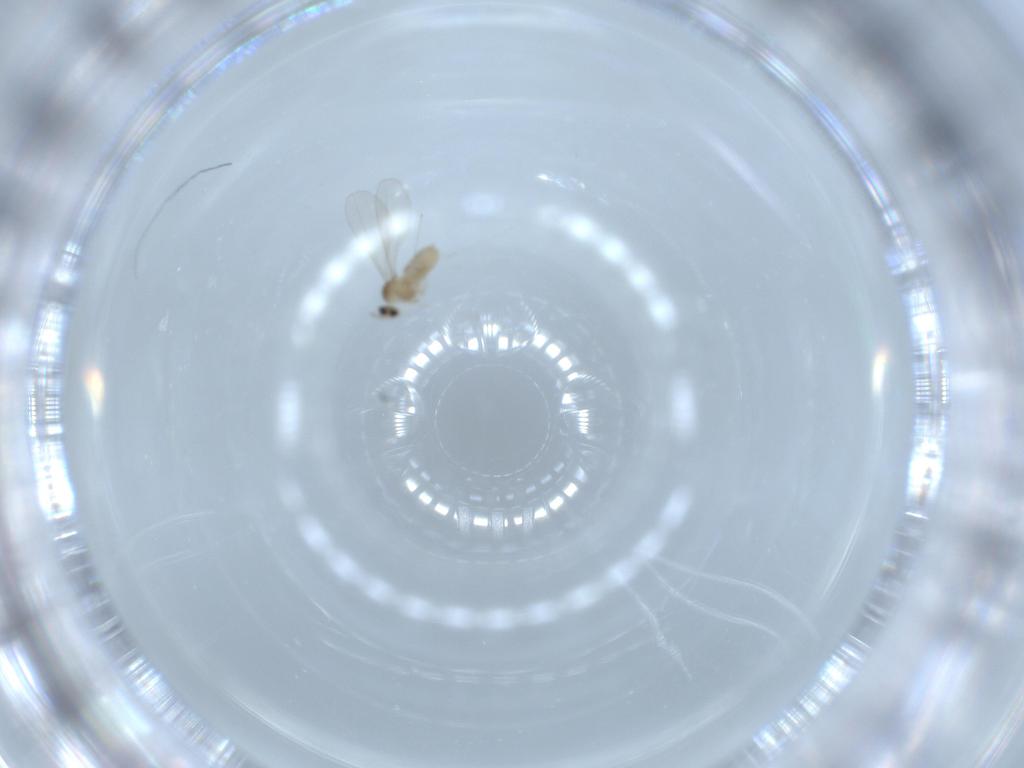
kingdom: Animalia
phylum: Arthropoda
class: Insecta
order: Diptera
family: Cecidomyiidae
